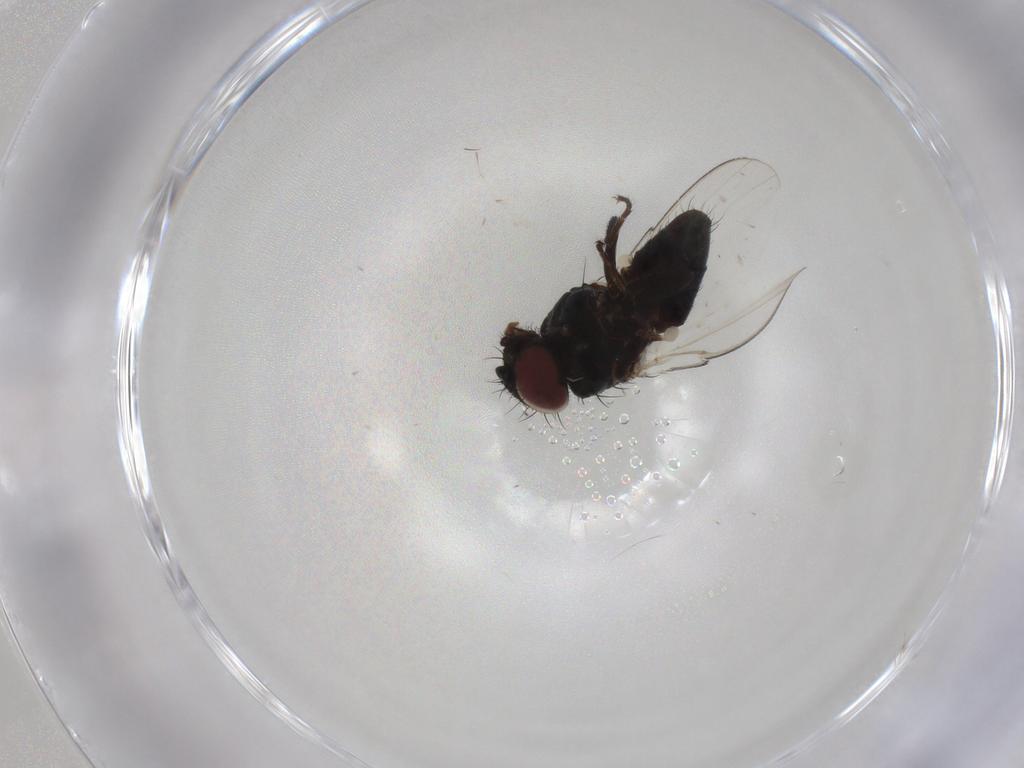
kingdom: Animalia
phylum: Arthropoda
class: Insecta
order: Diptera
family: Milichiidae
